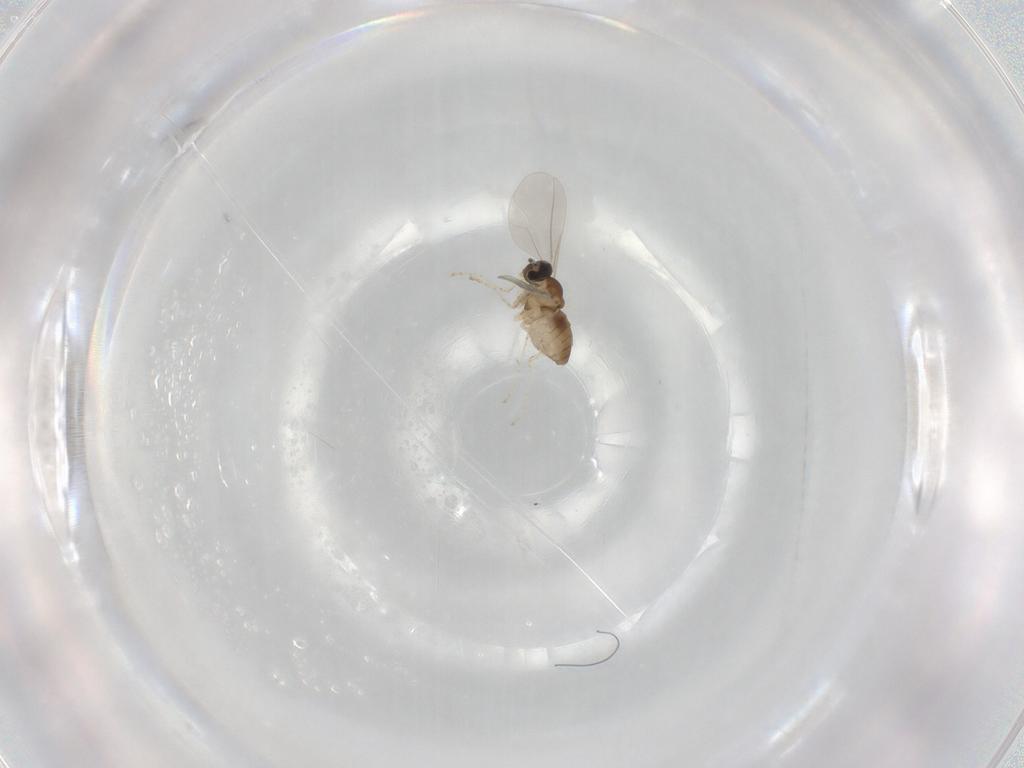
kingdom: Animalia
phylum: Arthropoda
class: Insecta
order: Diptera
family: Cecidomyiidae
